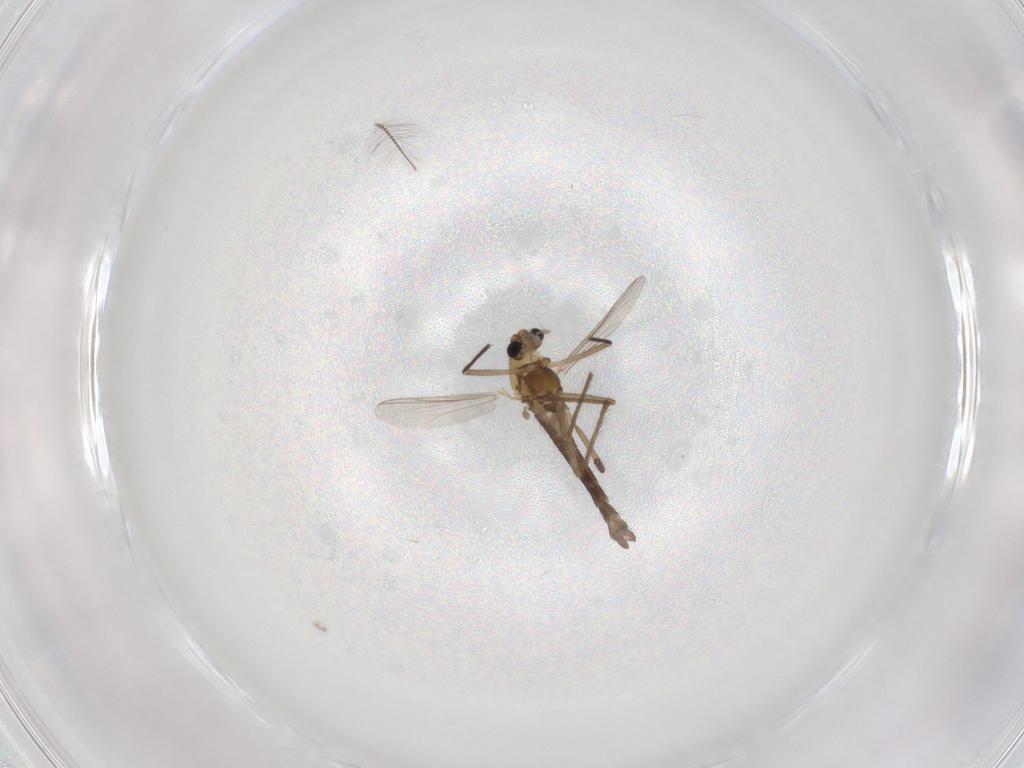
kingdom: Animalia
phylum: Arthropoda
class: Insecta
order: Diptera
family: Chironomidae
